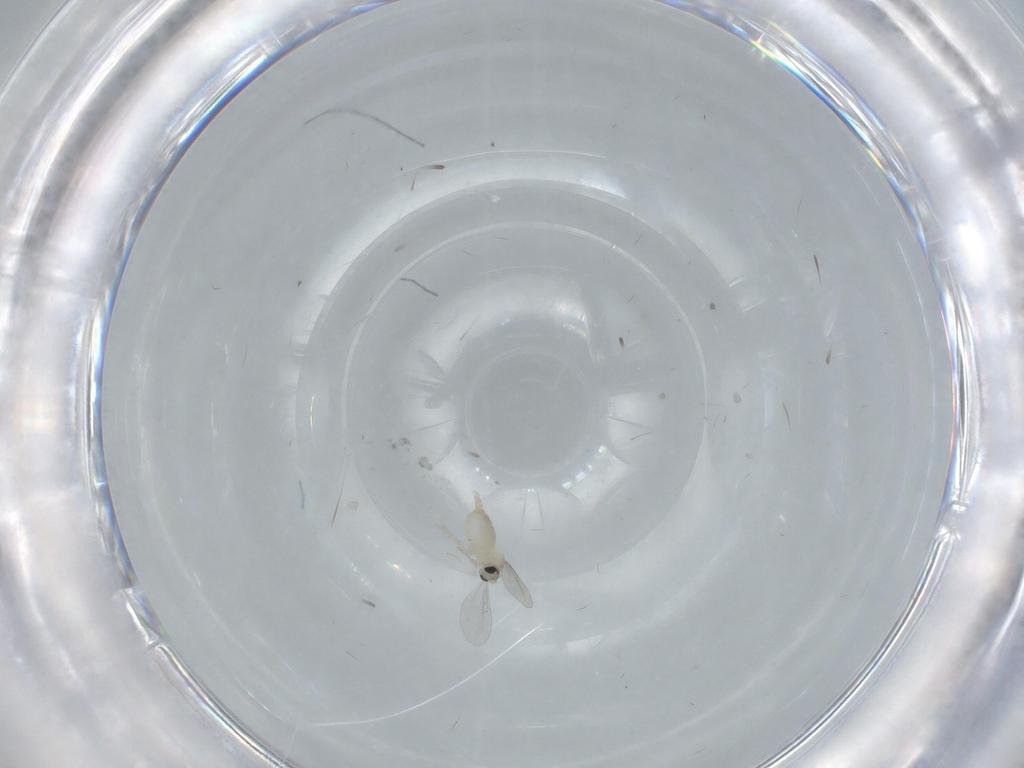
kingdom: Animalia
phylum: Arthropoda
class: Insecta
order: Diptera
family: Cecidomyiidae
